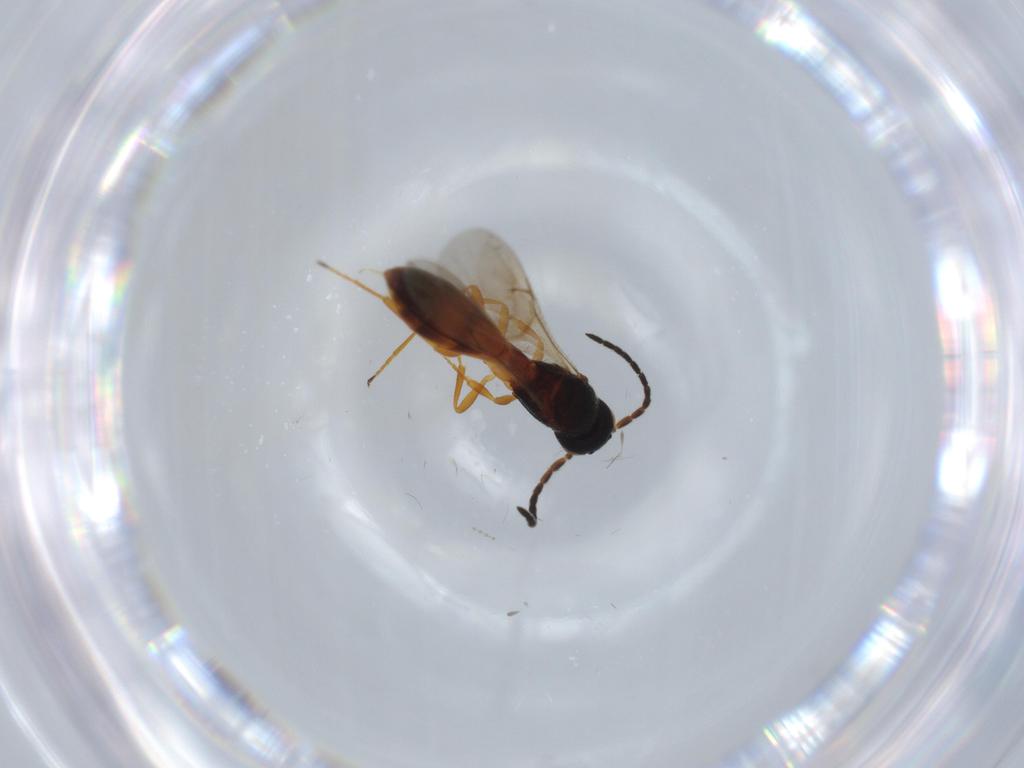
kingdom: Animalia
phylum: Arthropoda
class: Insecta
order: Hymenoptera
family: Scelionidae
